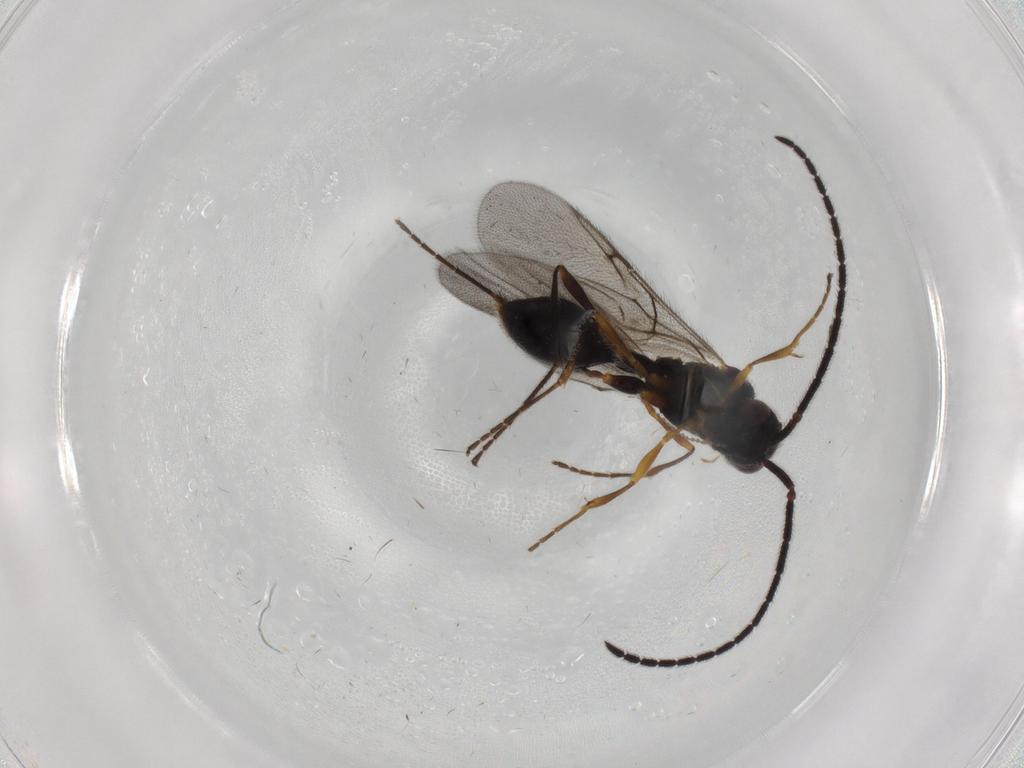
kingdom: Animalia
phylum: Arthropoda
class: Insecta
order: Hymenoptera
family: Diapriidae
